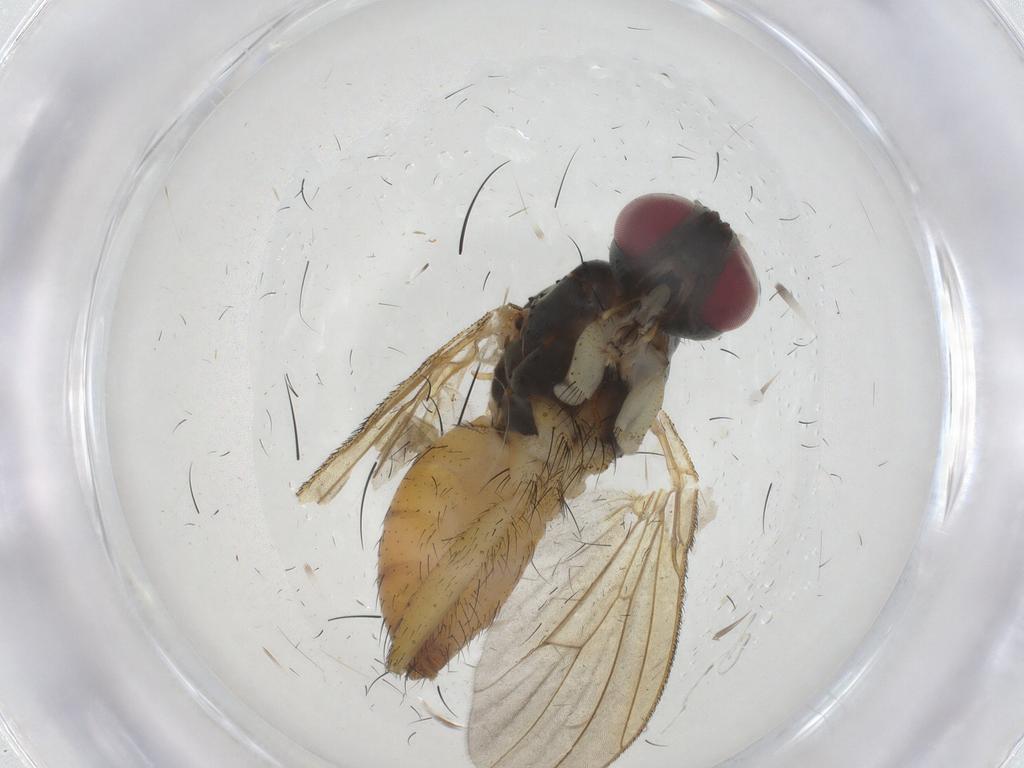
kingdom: Animalia
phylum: Arthropoda
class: Insecta
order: Diptera
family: Muscidae
